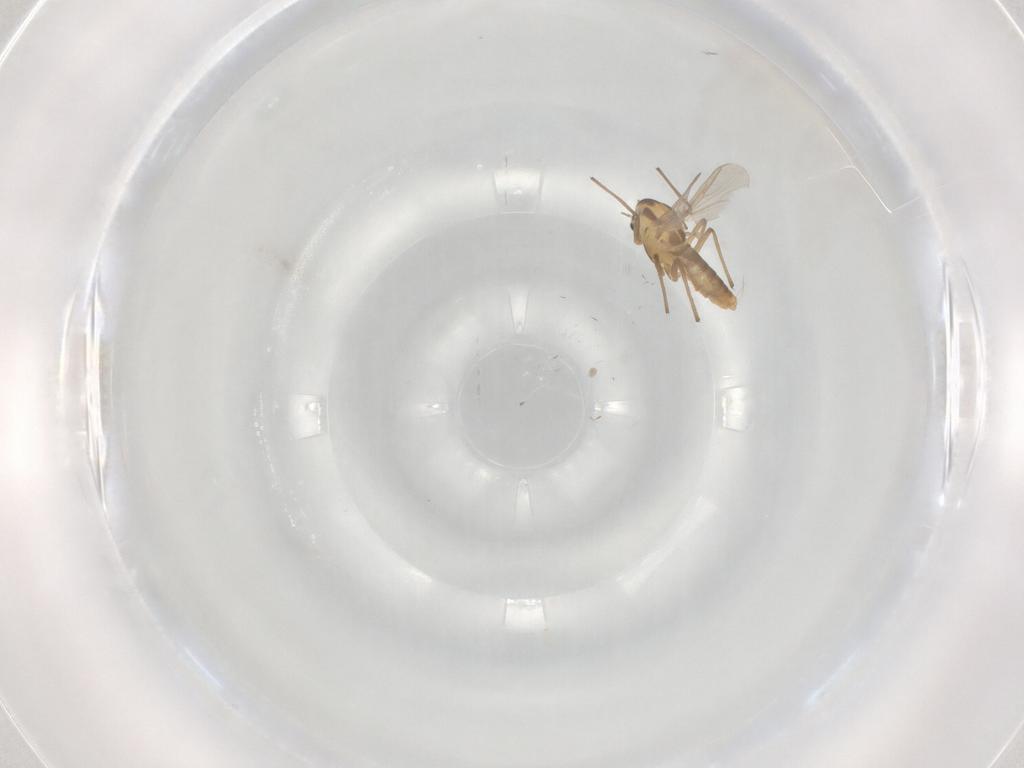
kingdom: Animalia
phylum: Arthropoda
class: Insecta
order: Diptera
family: Chironomidae
